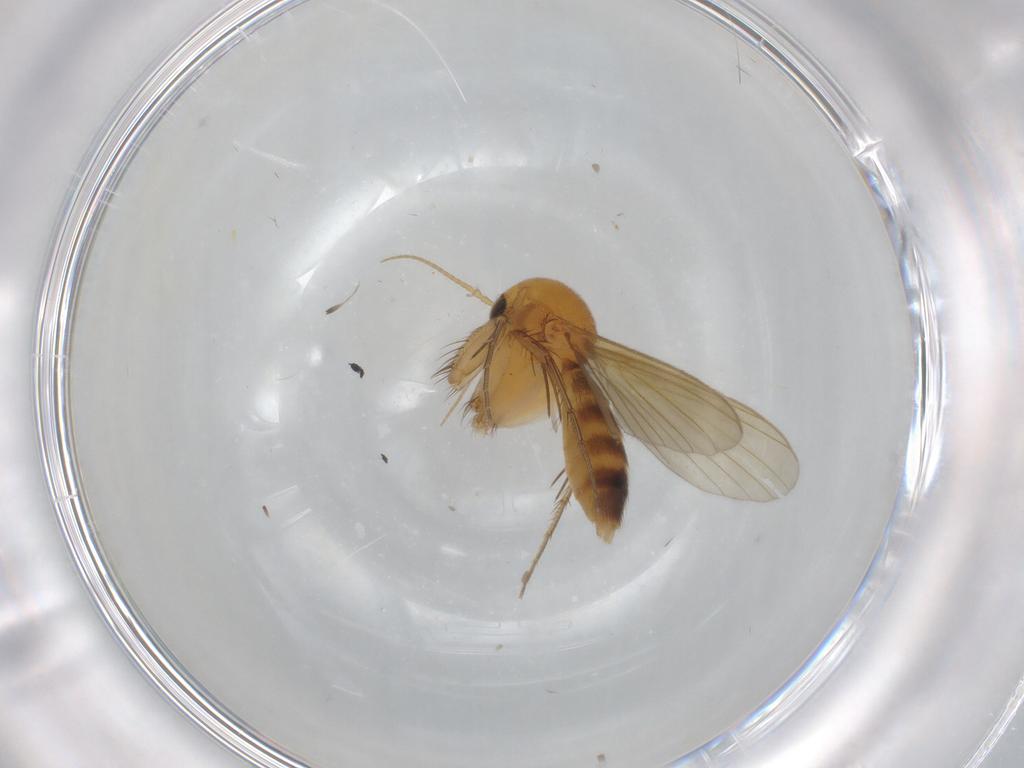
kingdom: Animalia
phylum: Arthropoda
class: Insecta
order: Diptera
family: Mycetophilidae
